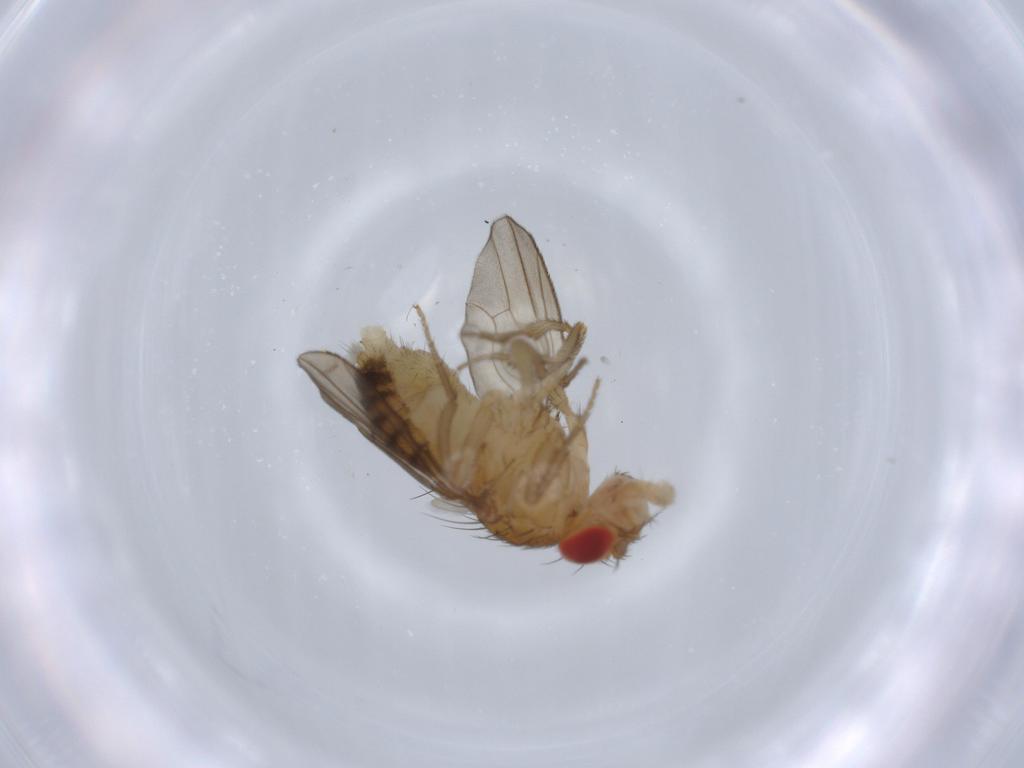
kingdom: Animalia
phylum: Arthropoda
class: Insecta
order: Diptera
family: Drosophilidae
